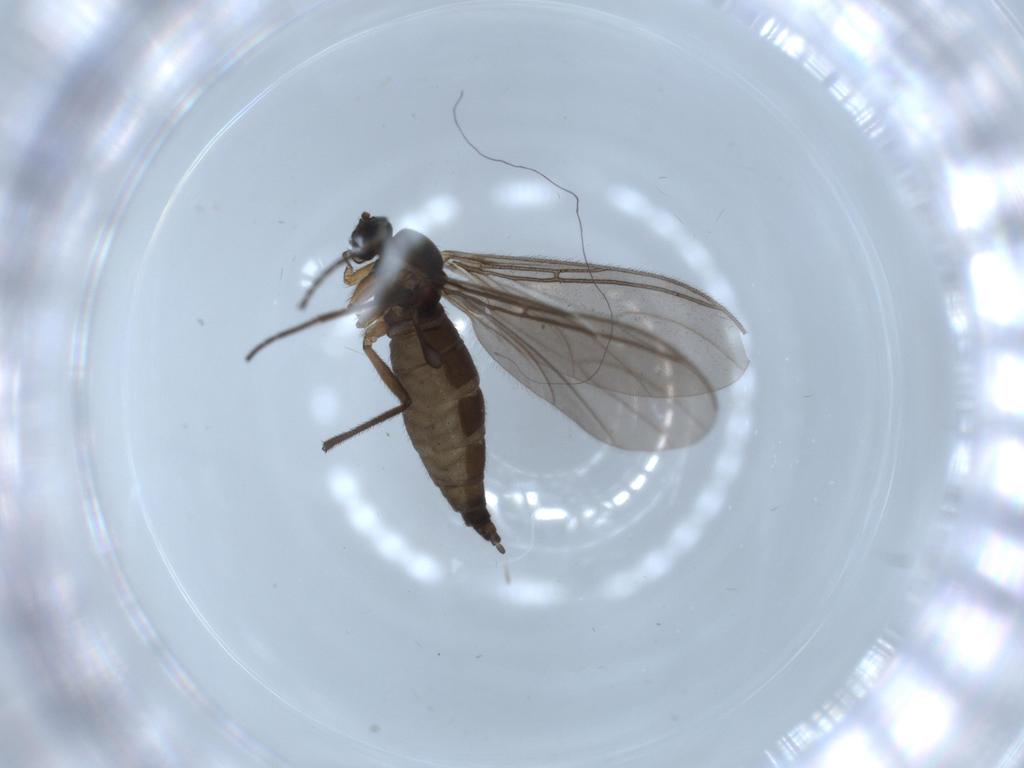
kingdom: Animalia
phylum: Arthropoda
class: Insecta
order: Diptera
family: Sciaridae
